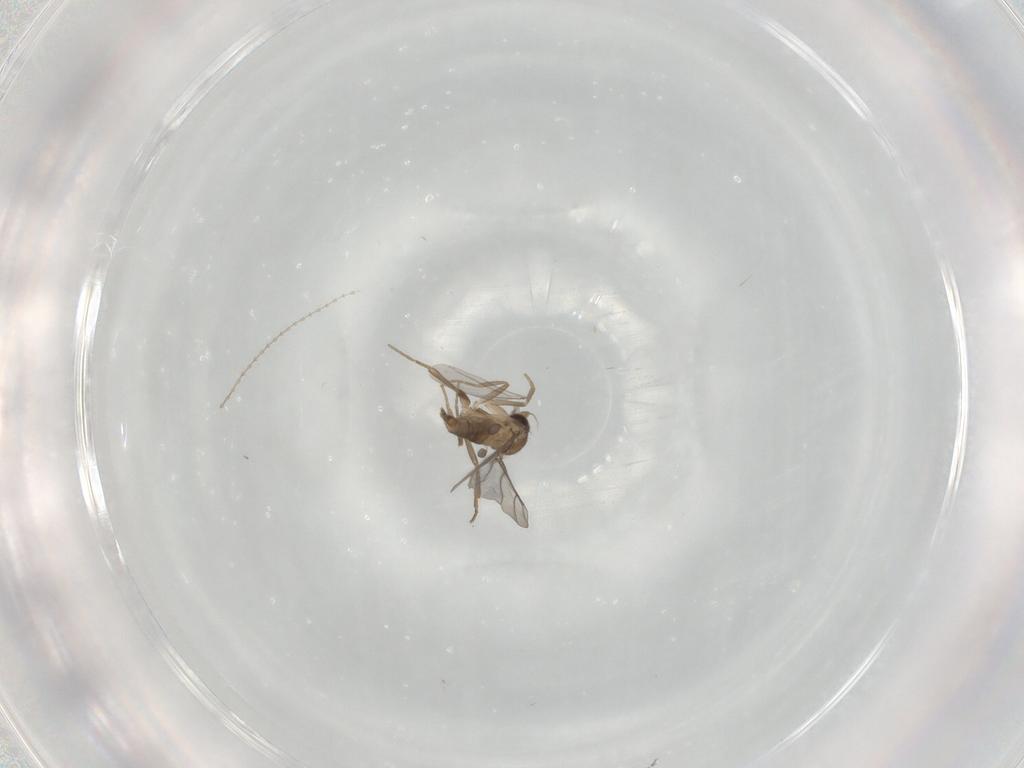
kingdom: Animalia
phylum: Arthropoda
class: Insecta
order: Diptera
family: Cecidomyiidae
